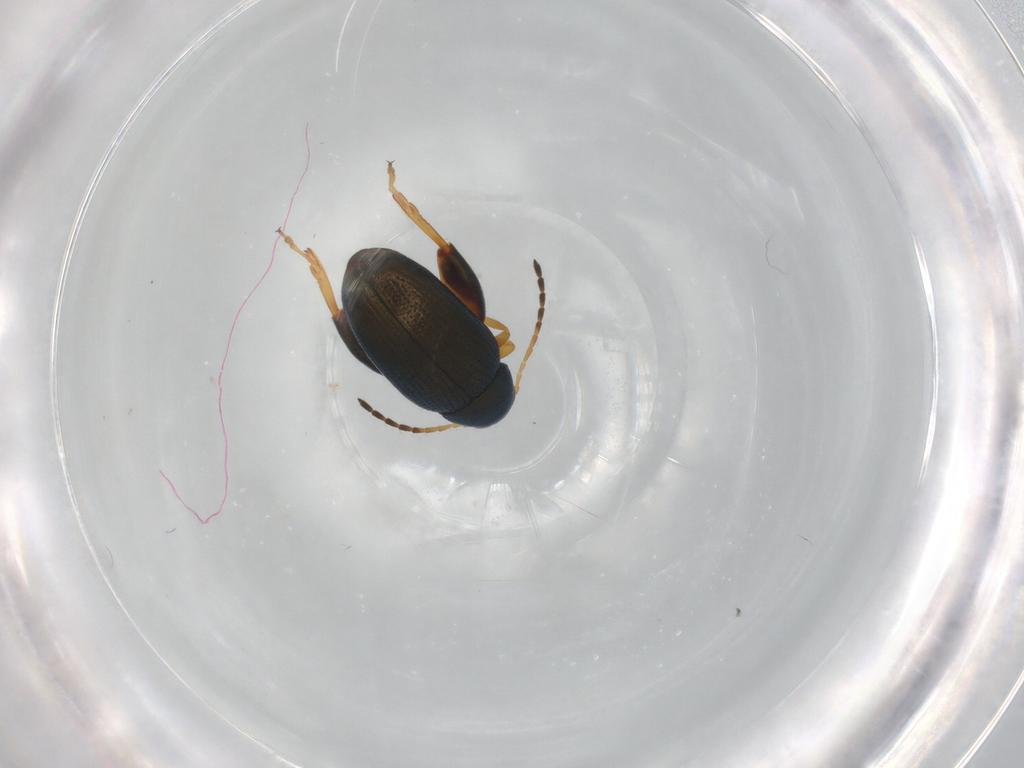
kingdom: Animalia
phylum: Arthropoda
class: Insecta
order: Coleoptera
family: Chrysomelidae
